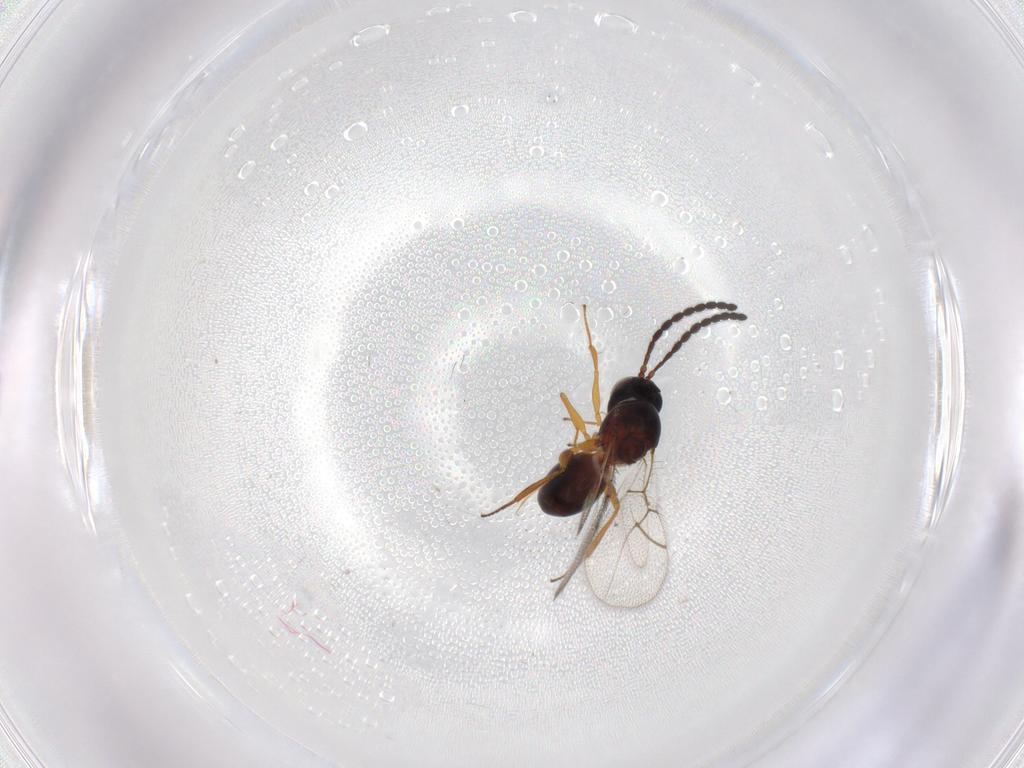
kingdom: Animalia
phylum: Arthropoda
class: Insecta
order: Hymenoptera
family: Figitidae
